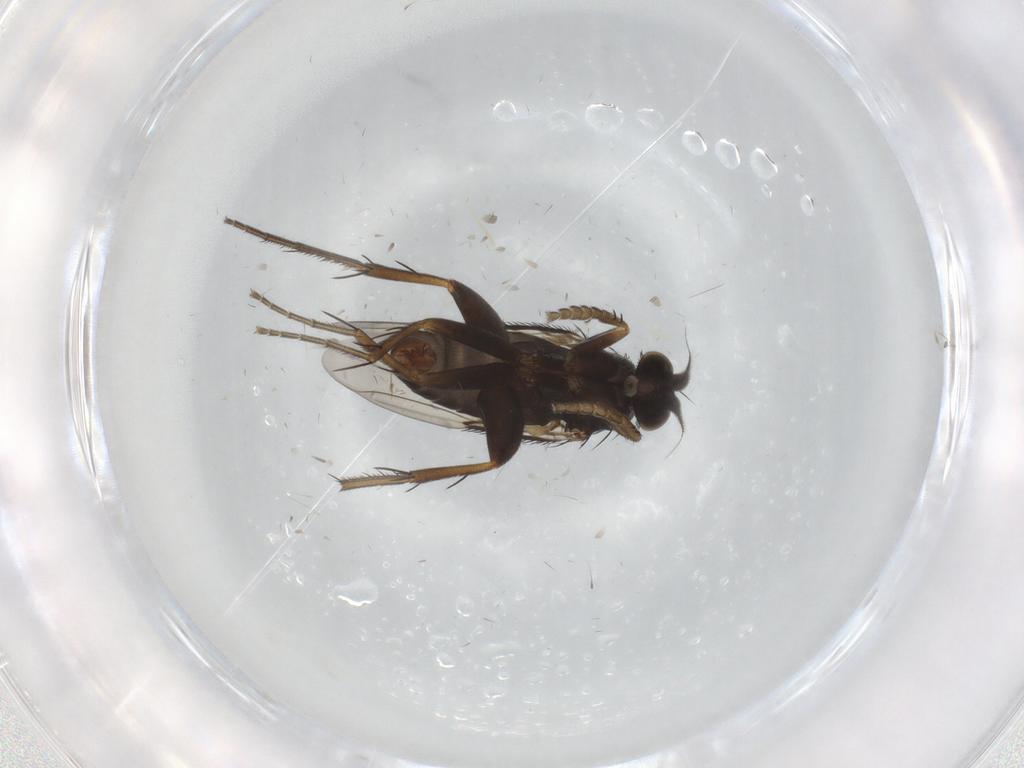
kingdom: Animalia
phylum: Arthropoda
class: Insecta
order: Diptera
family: Phoridae
